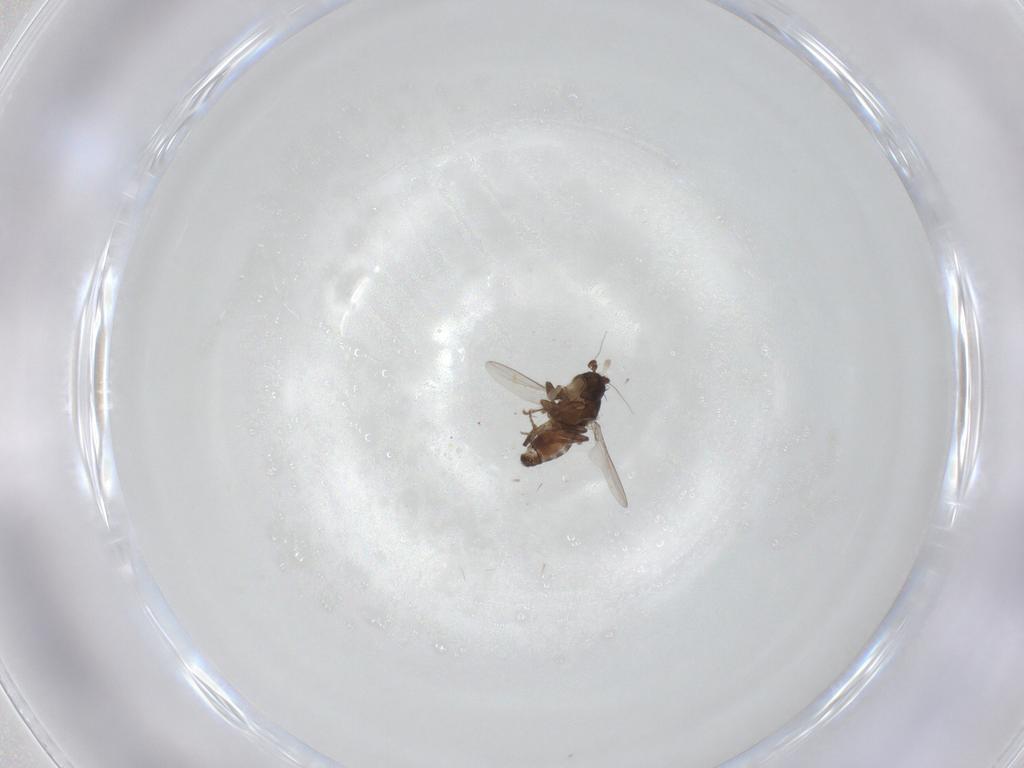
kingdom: Animalia
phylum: Arthropoda
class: Insecta
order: Diptera
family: Sphaeroceridae
